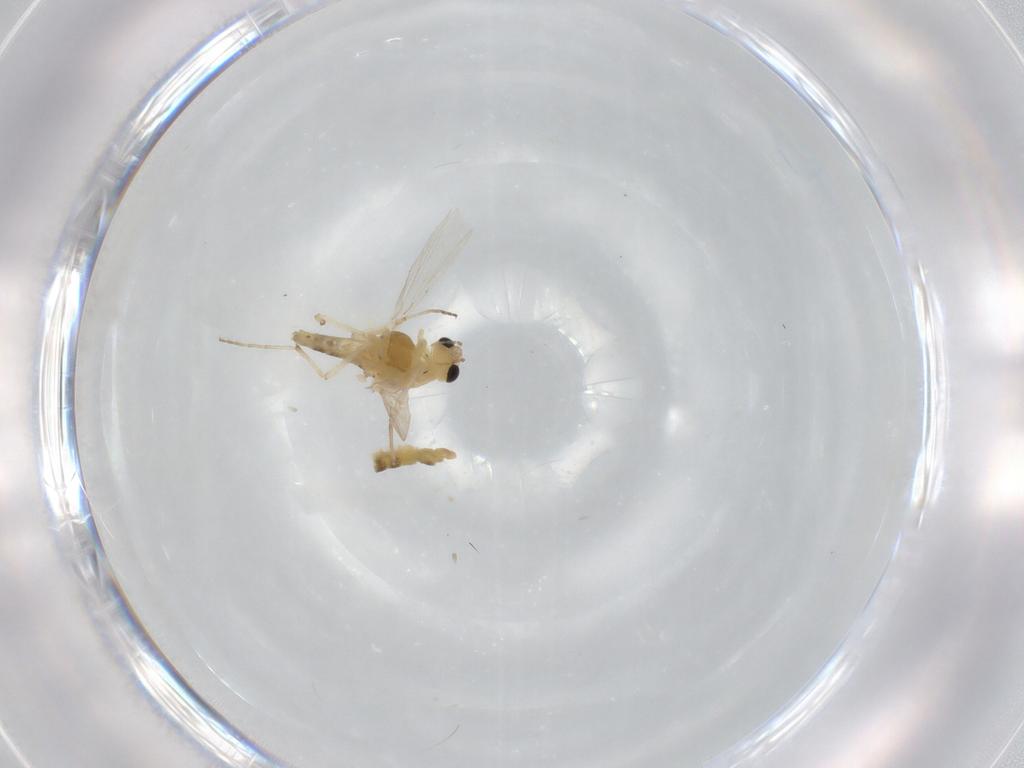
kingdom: Animalia
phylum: Arthropoda
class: Insecta
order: Diptera
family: Chironomidae
